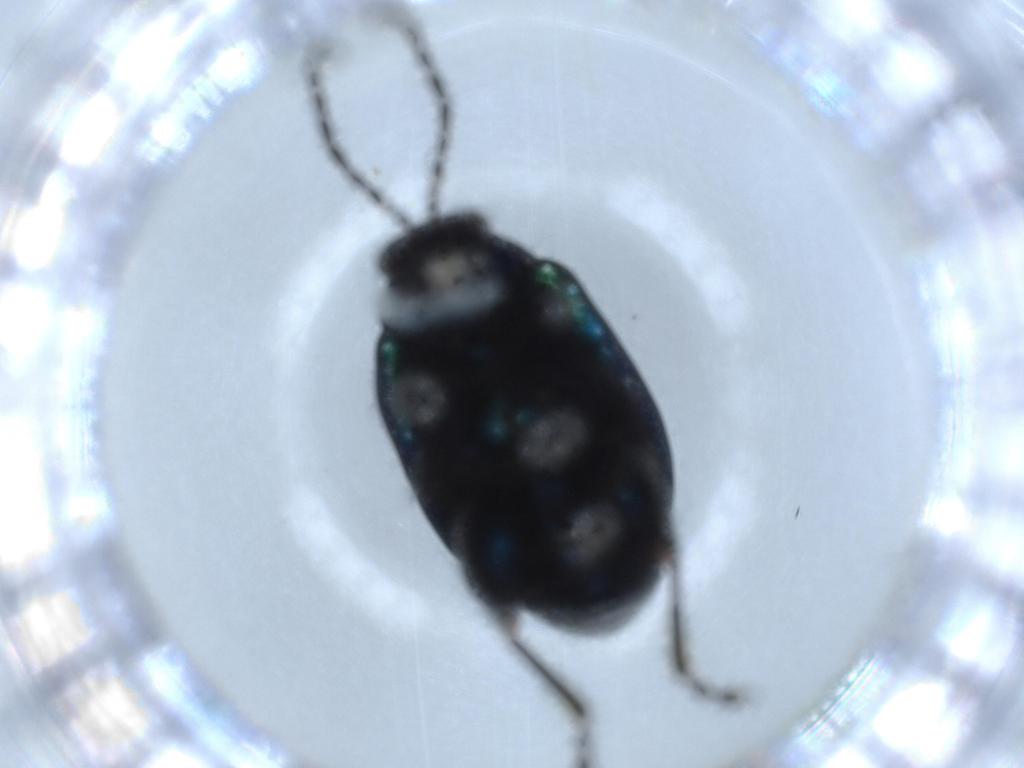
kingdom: Animalia
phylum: Arthropoda
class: Insecta
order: Coleoptera
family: Chrysomelidae
